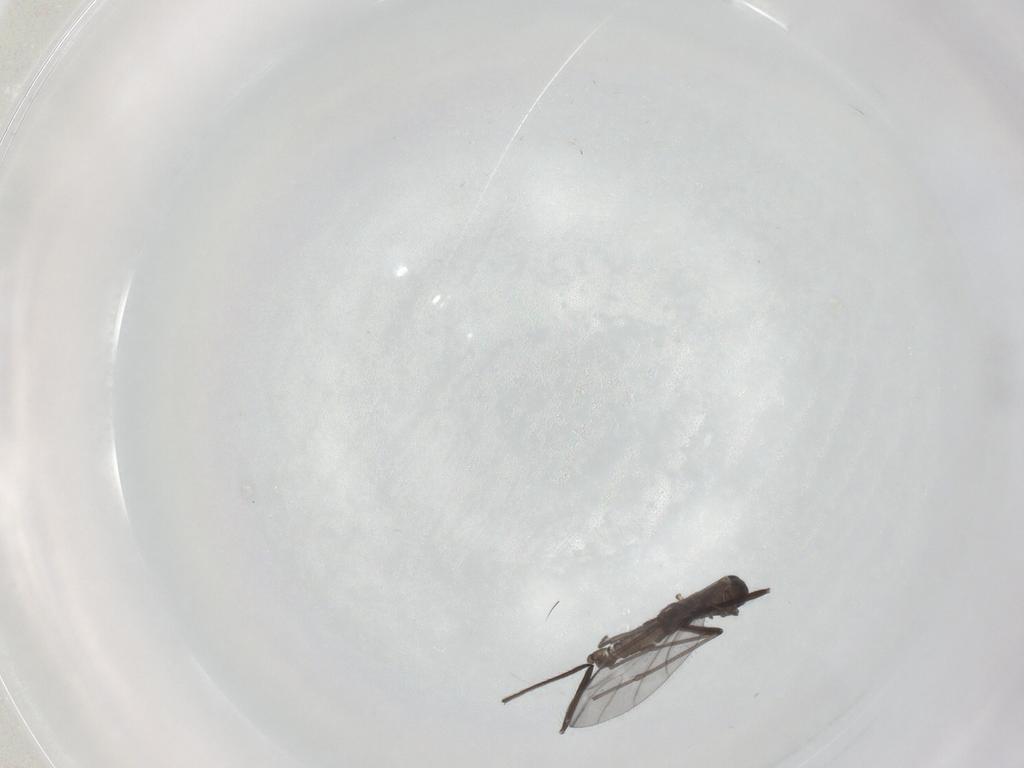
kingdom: Animalia
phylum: Arthropoda
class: Insecta
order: Diptera
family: Sciaridae
